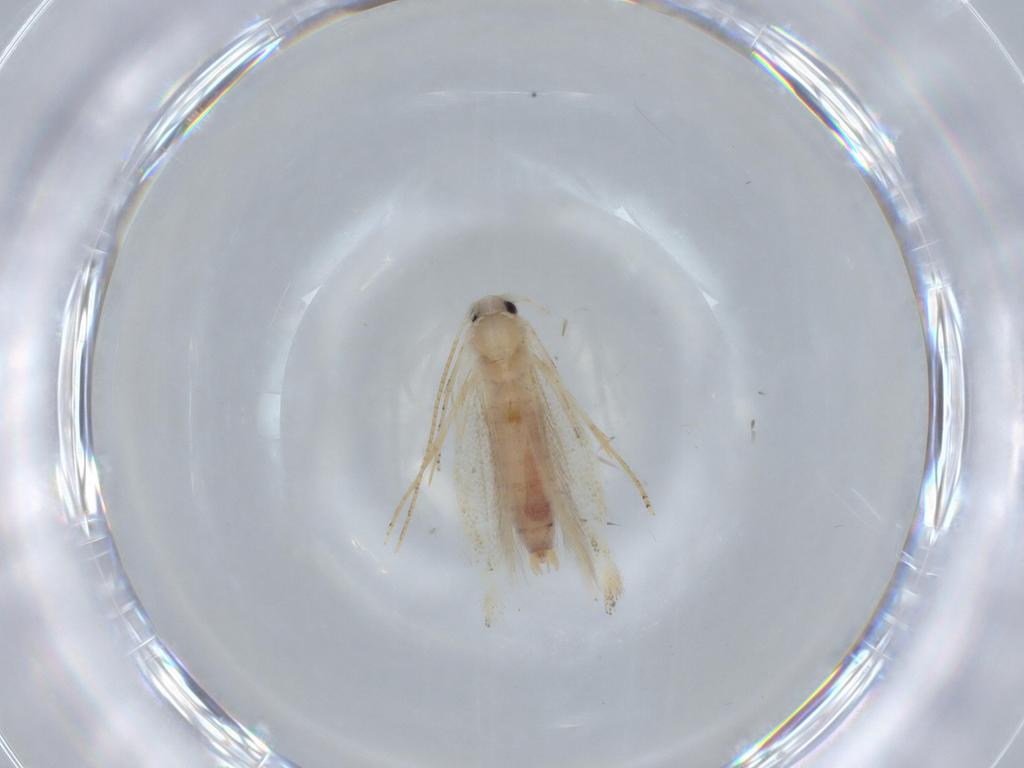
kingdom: Animalia
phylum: Arthropoda
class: Insecta
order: Lepidoptera
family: Bucculatricidae
